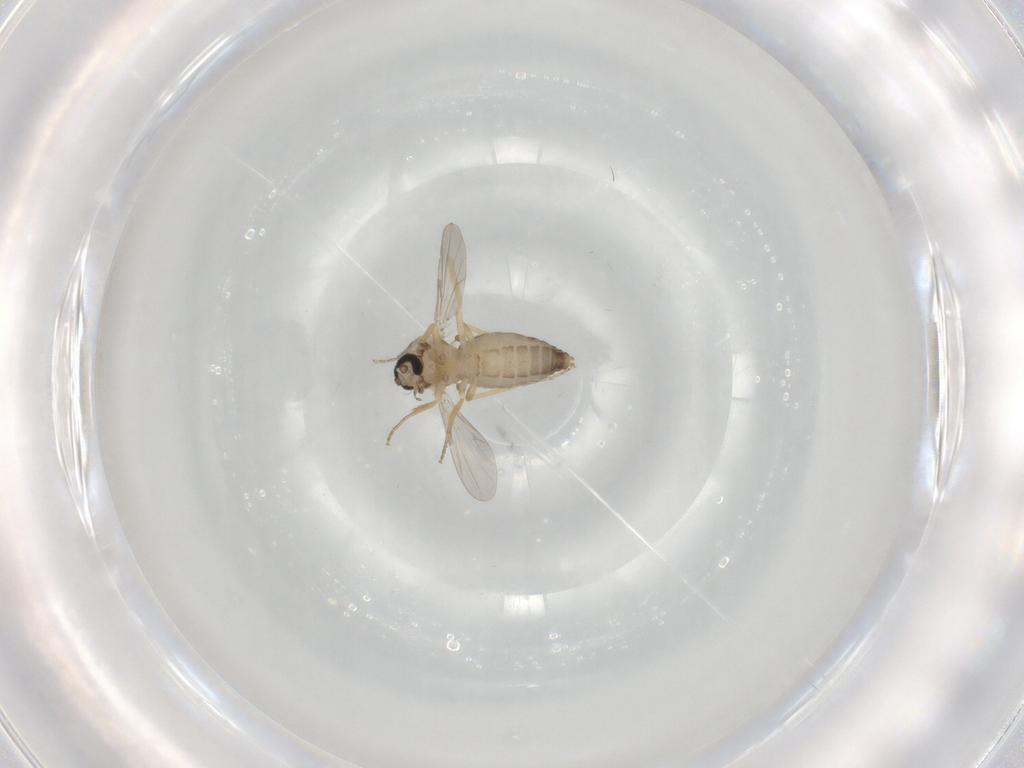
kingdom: Animalia
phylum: Arthropoda
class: Insecta
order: Diptera
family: Ceratopogonidae
